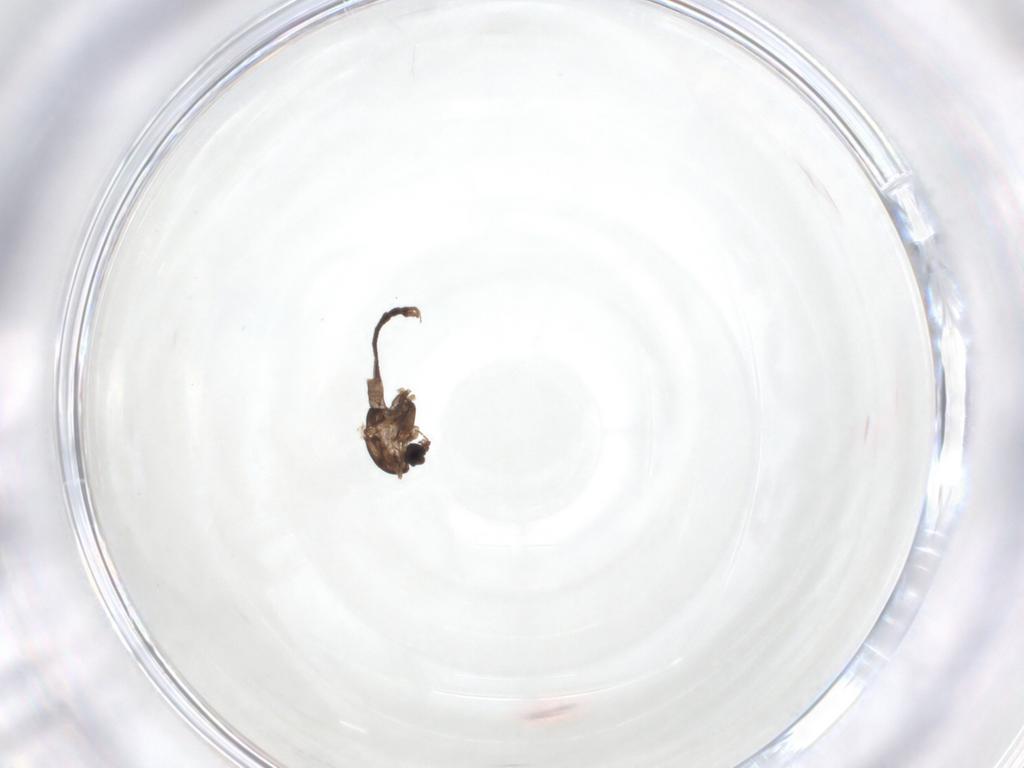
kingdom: Animalia
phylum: Arthropoda
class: Insecta
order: Diptera
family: Chironomidae
